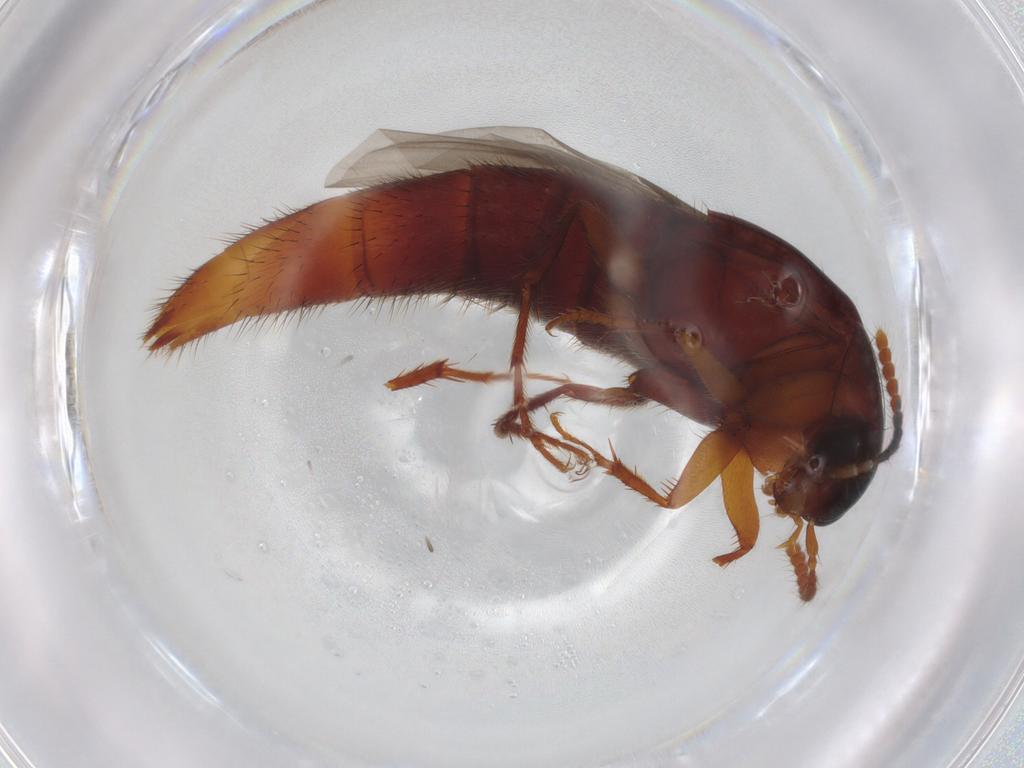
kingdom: Animalia
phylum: Arthropoda
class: Insecta
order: Coleoptera
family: Staphylinidae
